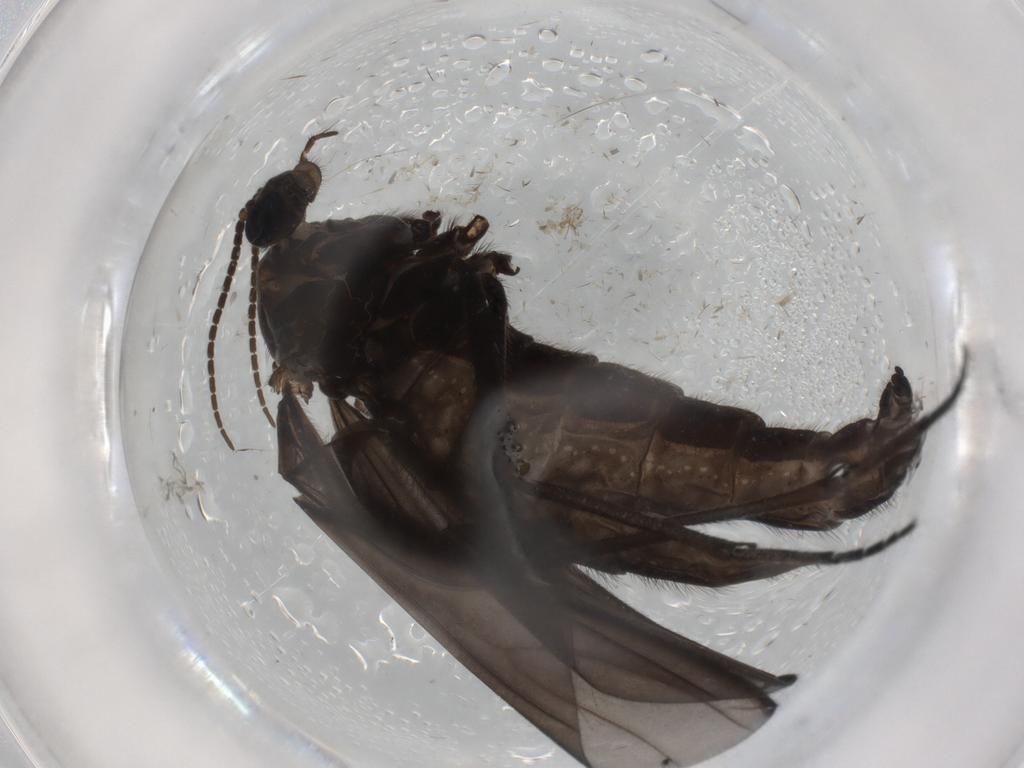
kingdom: Animalia
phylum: Arthropoda
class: Insecta
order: Diptera
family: Sciaridae
